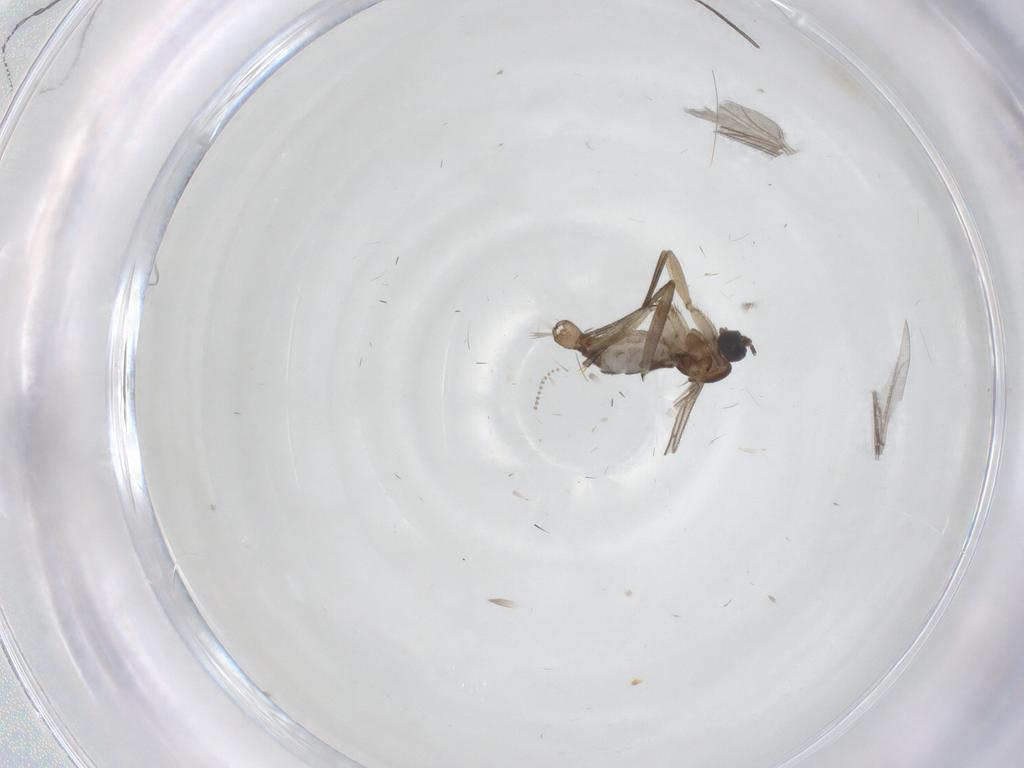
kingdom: Animalia
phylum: Arthropoda
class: Insecta
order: Diptera
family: Sciaridae
